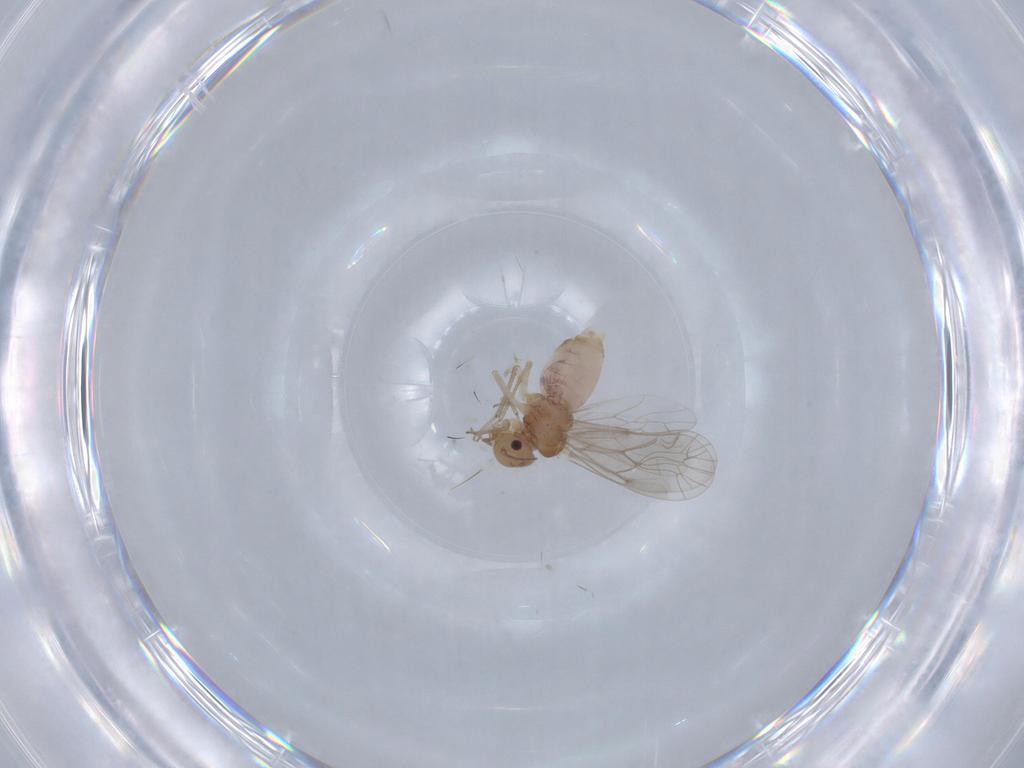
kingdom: Animalia
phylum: Arthropoda
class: Insecta
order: Psocodea
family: Lachesillidae
